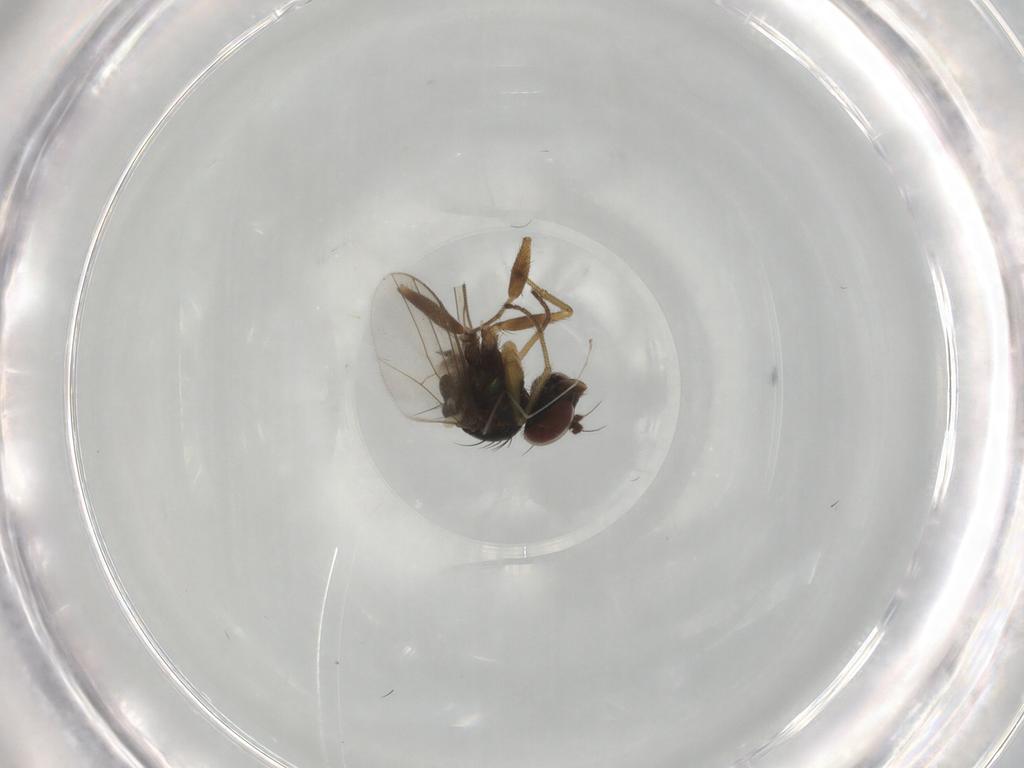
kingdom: Animalia
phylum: Arthropoda
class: Insecta
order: Diptera
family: Dolichopodidae
